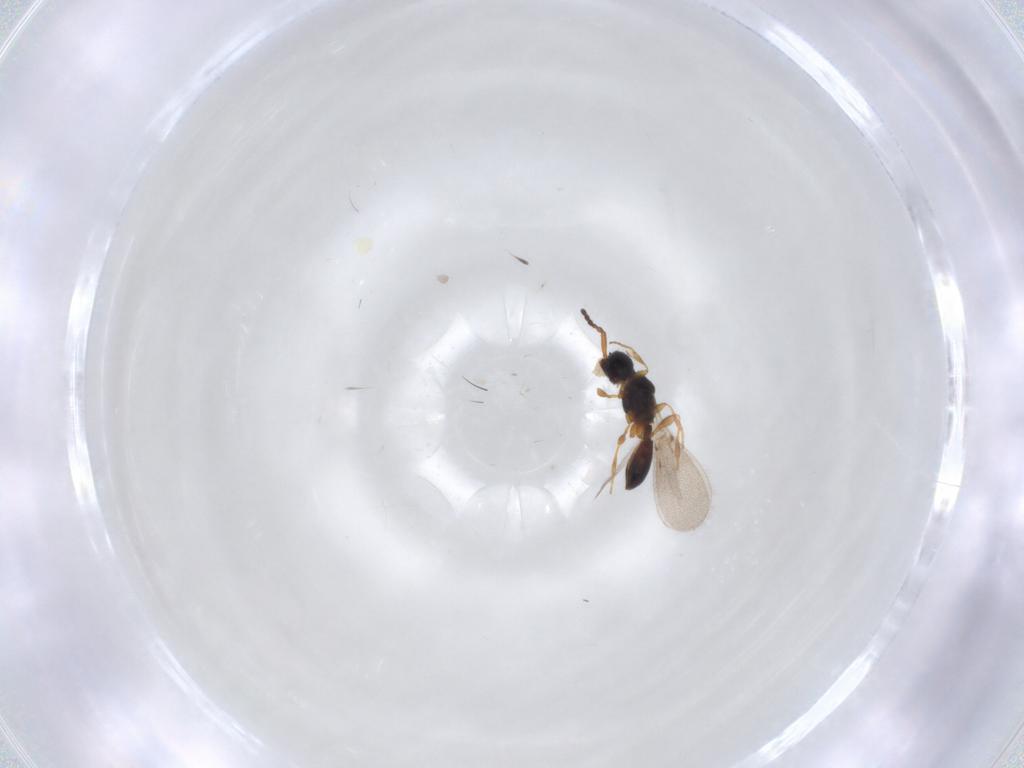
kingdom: Animalia
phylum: Arthropoda
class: Insecta
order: Hymenoptera
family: Diapriidae
